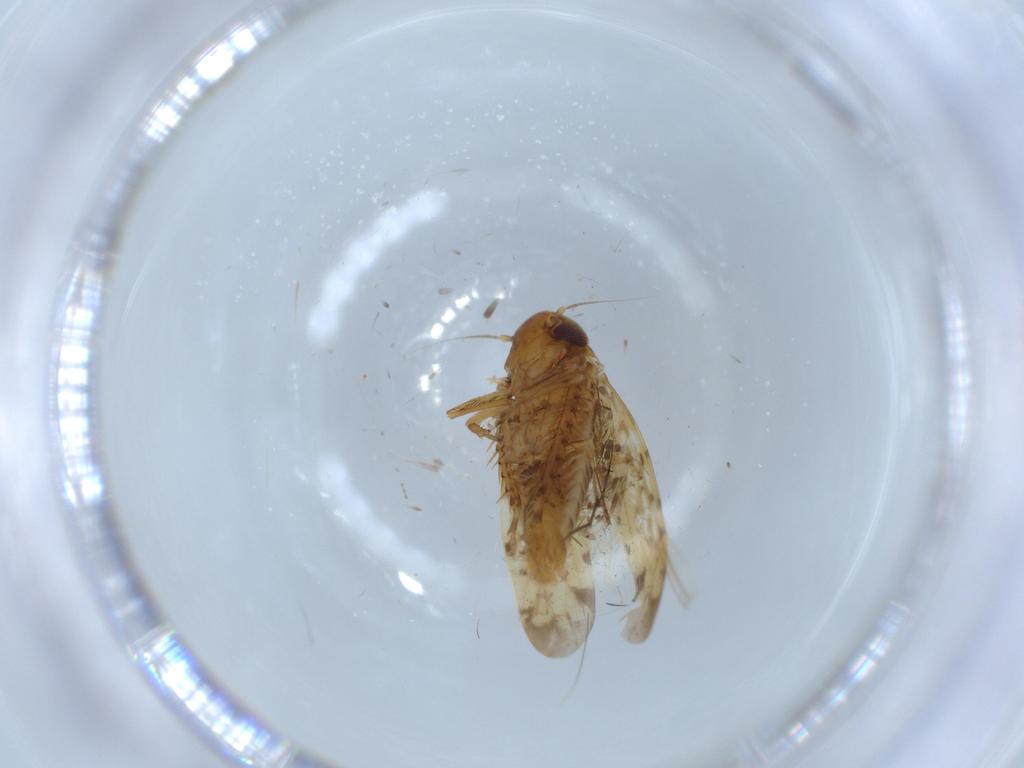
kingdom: Animalia
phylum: Arthropoda
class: Insecta
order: Hemiptera
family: Cicadellidae
